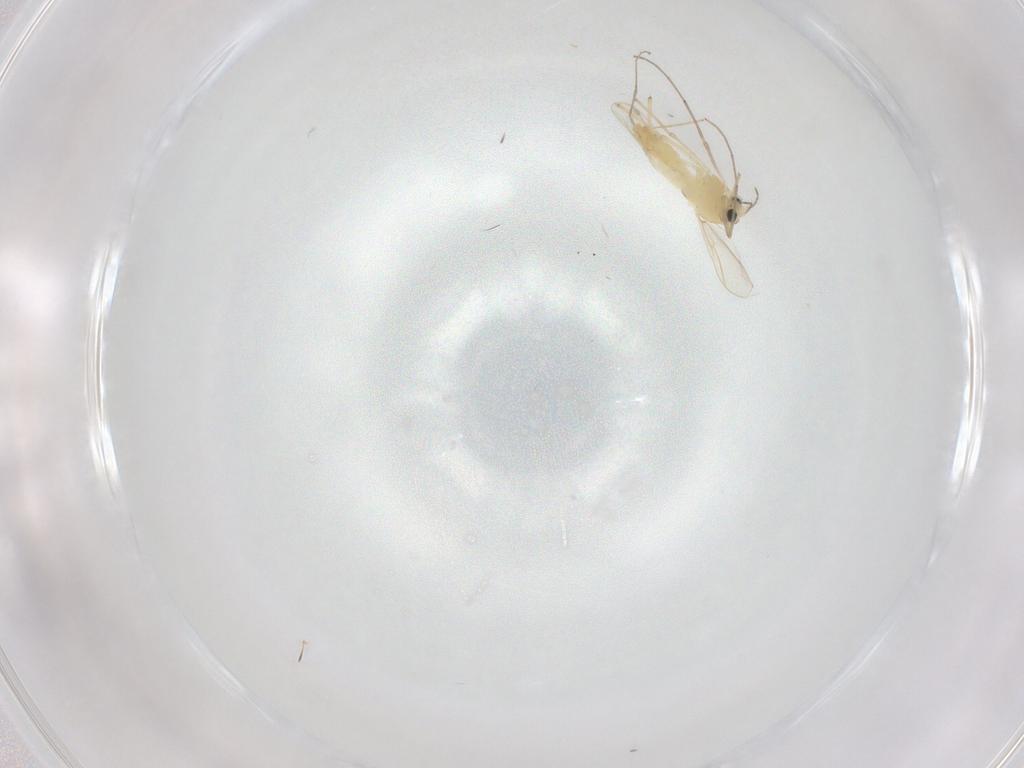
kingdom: Animalia
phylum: Arthropoda
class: Insecta
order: Diptera
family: Chironomidae
